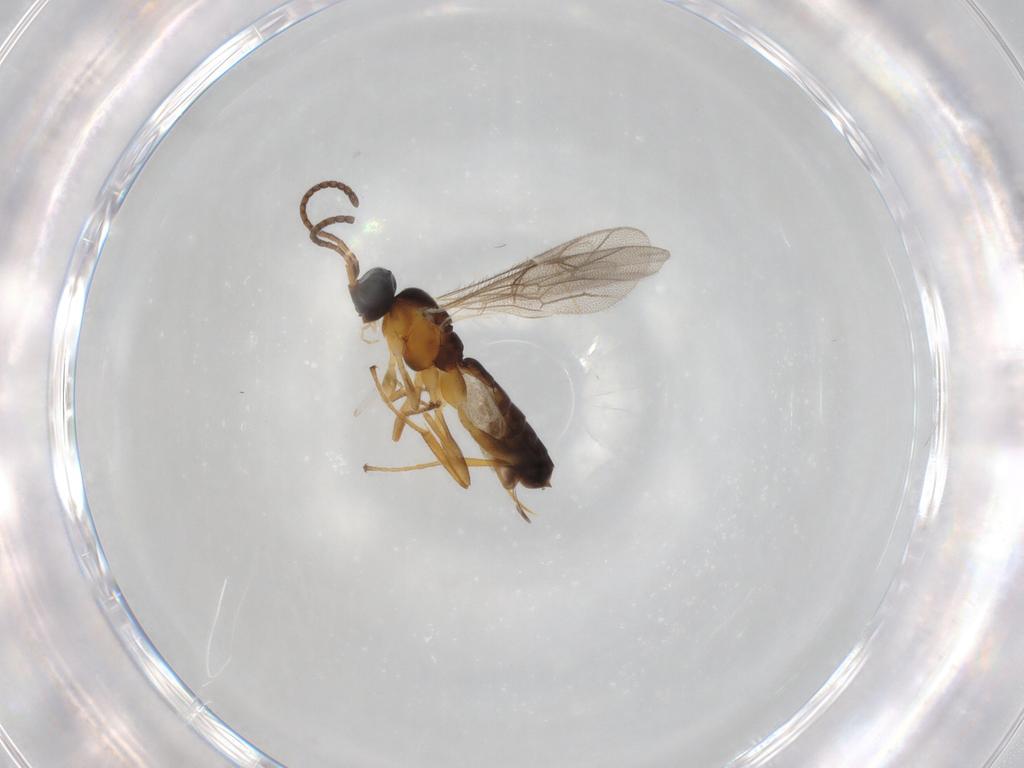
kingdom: Animalia
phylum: Arthropoda
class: Insecta
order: Hymenoptera
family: Ichneumonidae
